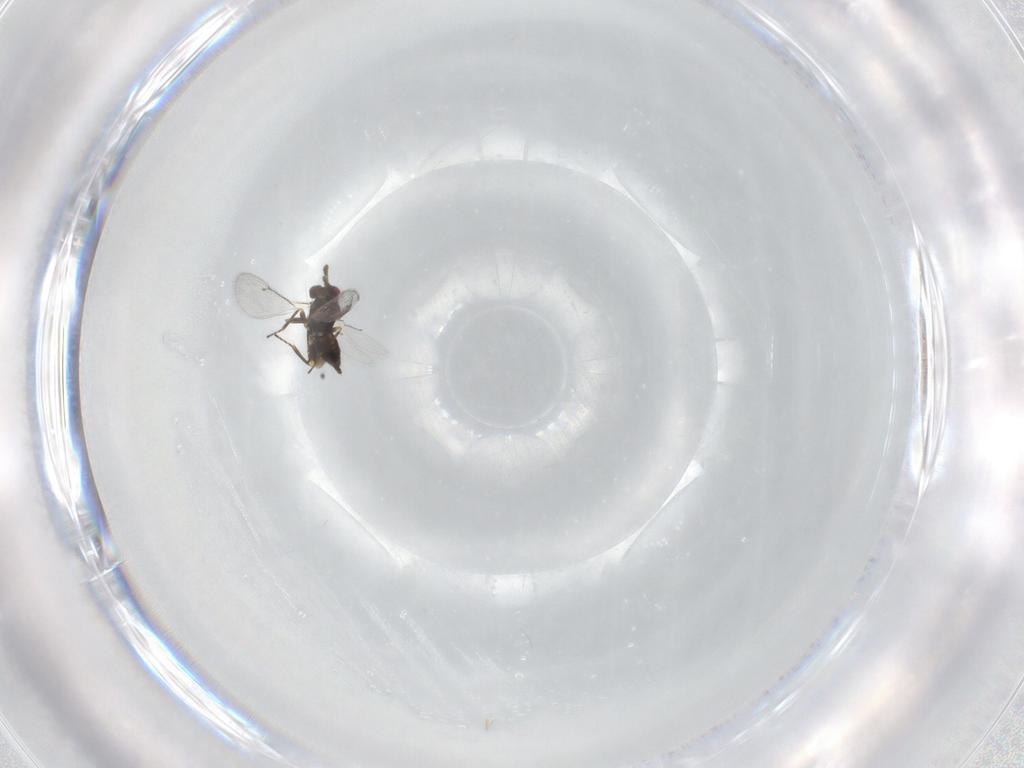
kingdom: Animalia
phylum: Arthropoda
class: Insecta
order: Hymenoptera
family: Eulophidae
